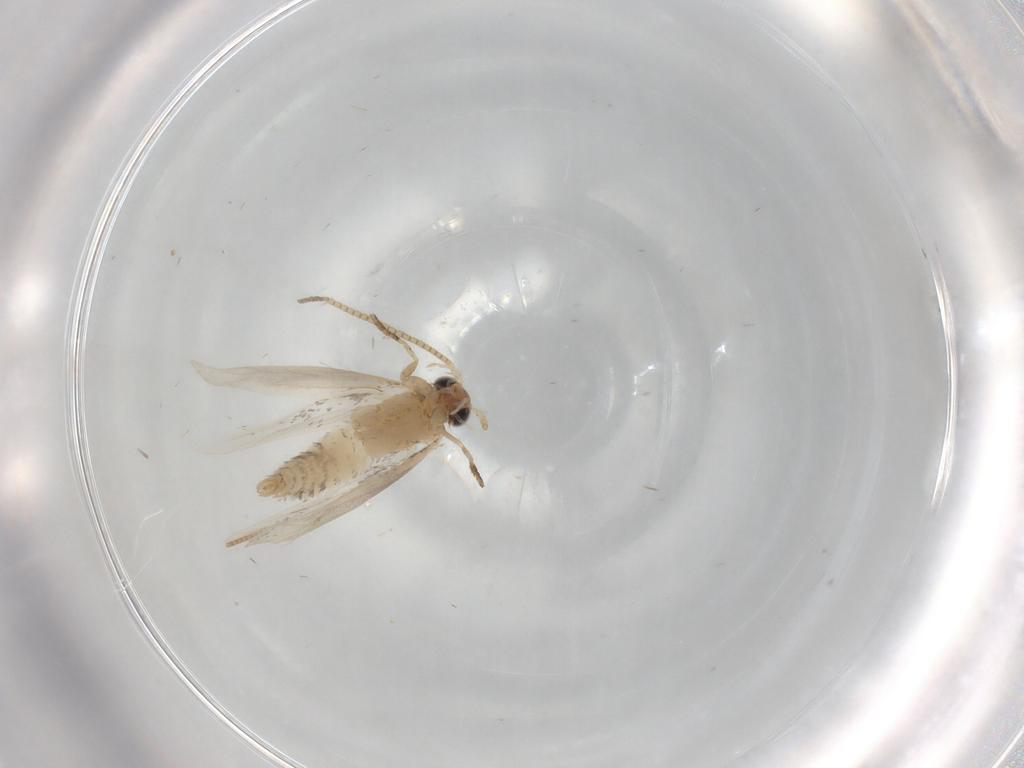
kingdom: Animalia
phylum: Arthropoda
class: Insecta
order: Lepidoptera
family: Tineidae
